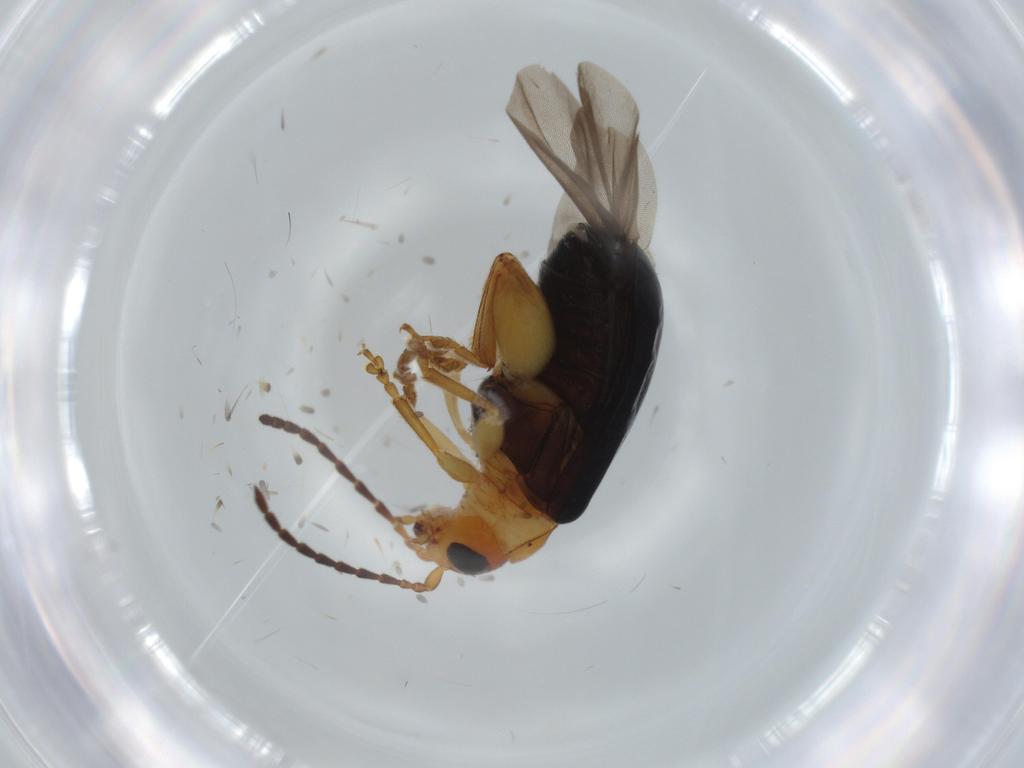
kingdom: Animalia
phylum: Arthropoda
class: Insecta
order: Coleoptera
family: Chrysomelidae
